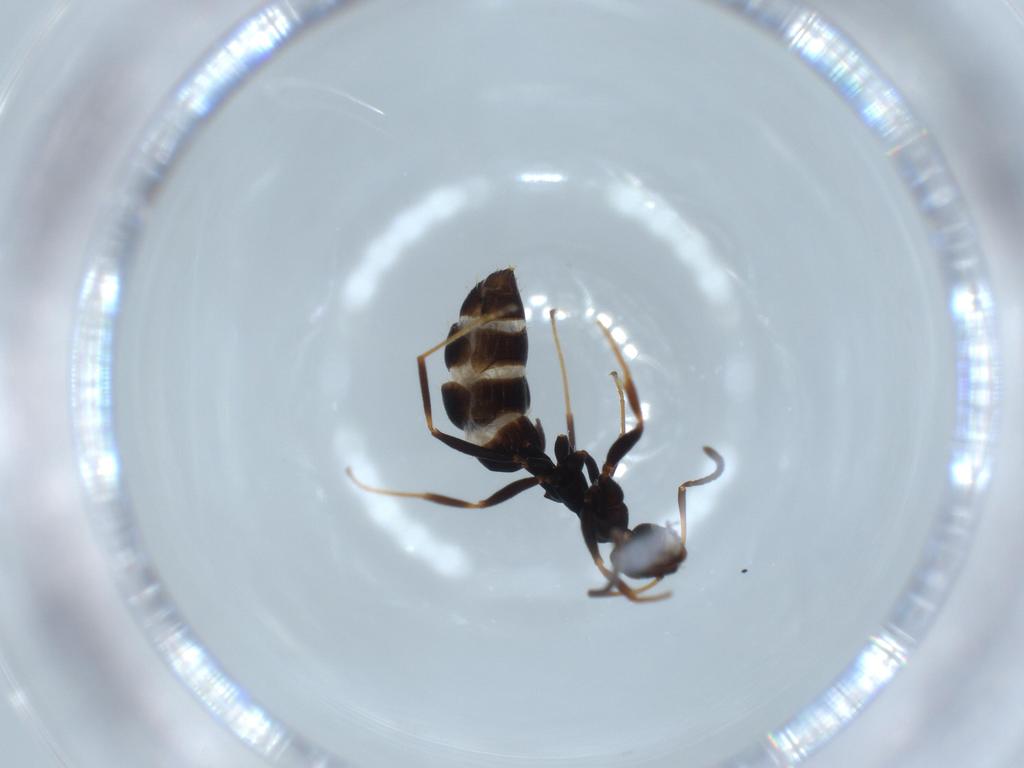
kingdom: Animalia
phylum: Arthropoda
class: Insecta
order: Hymenoptera
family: Formicidae
